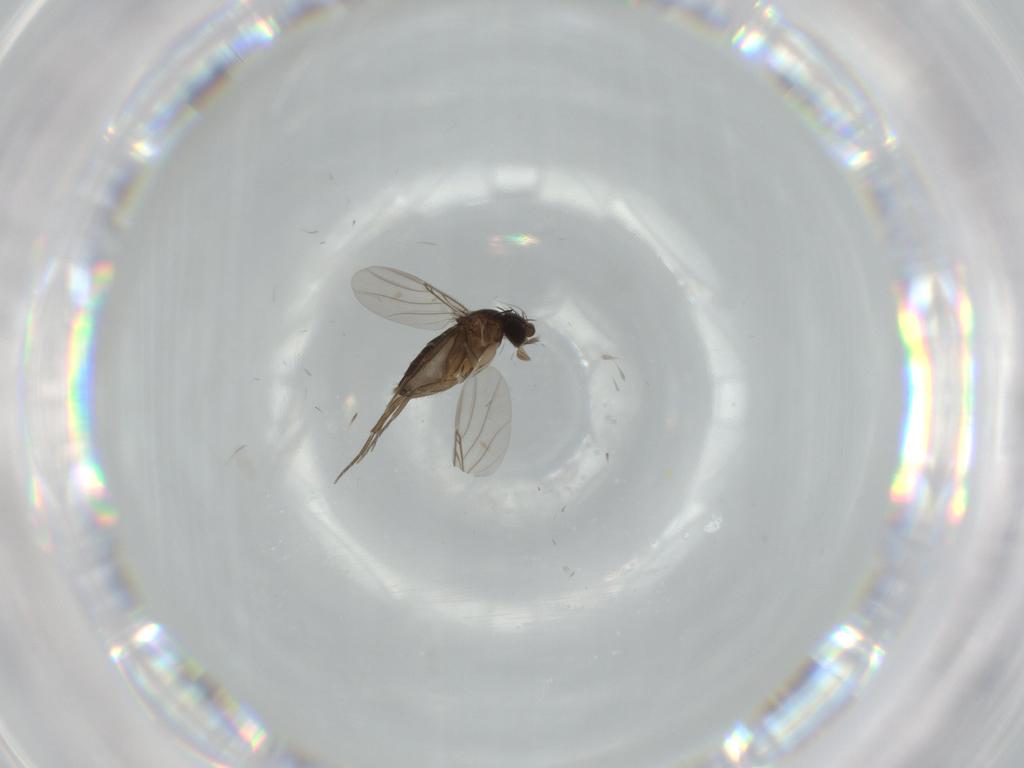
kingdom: Animalia
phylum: Arthropoda
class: Insecta
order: Diptera
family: Phoridae
